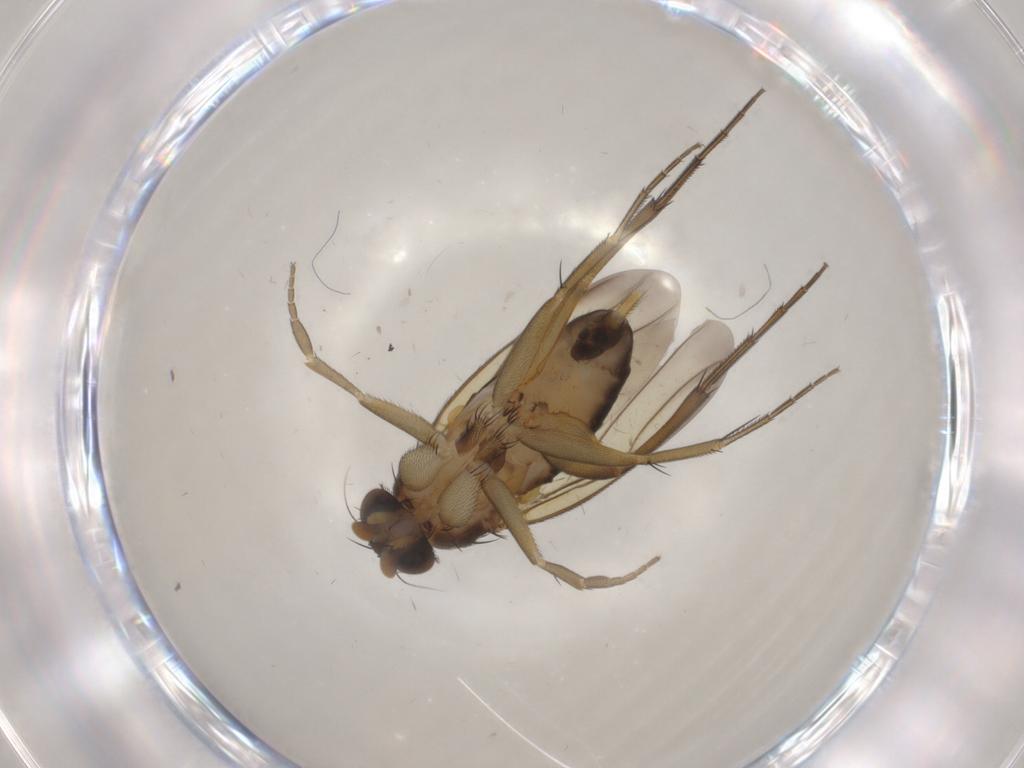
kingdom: Animalia
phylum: Arthropoda
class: Insecta
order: Diptera
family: Phoridae
